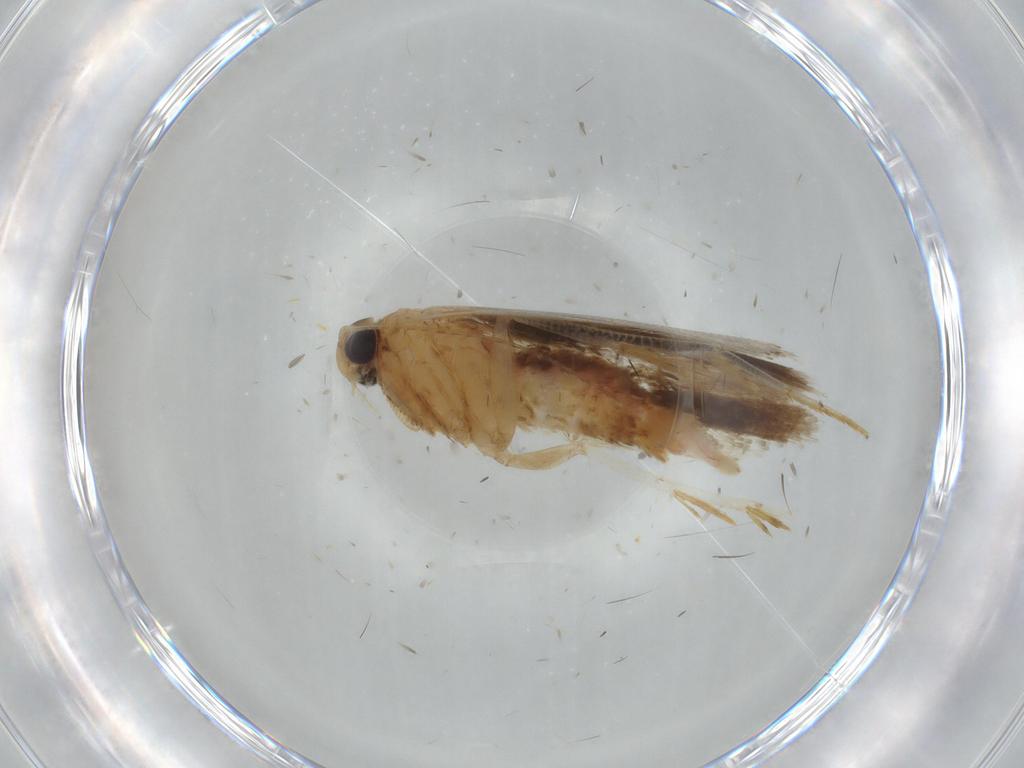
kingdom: Animalia
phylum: Arthropoda
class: Insecta
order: Lepidoptera
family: Gelechiidae
